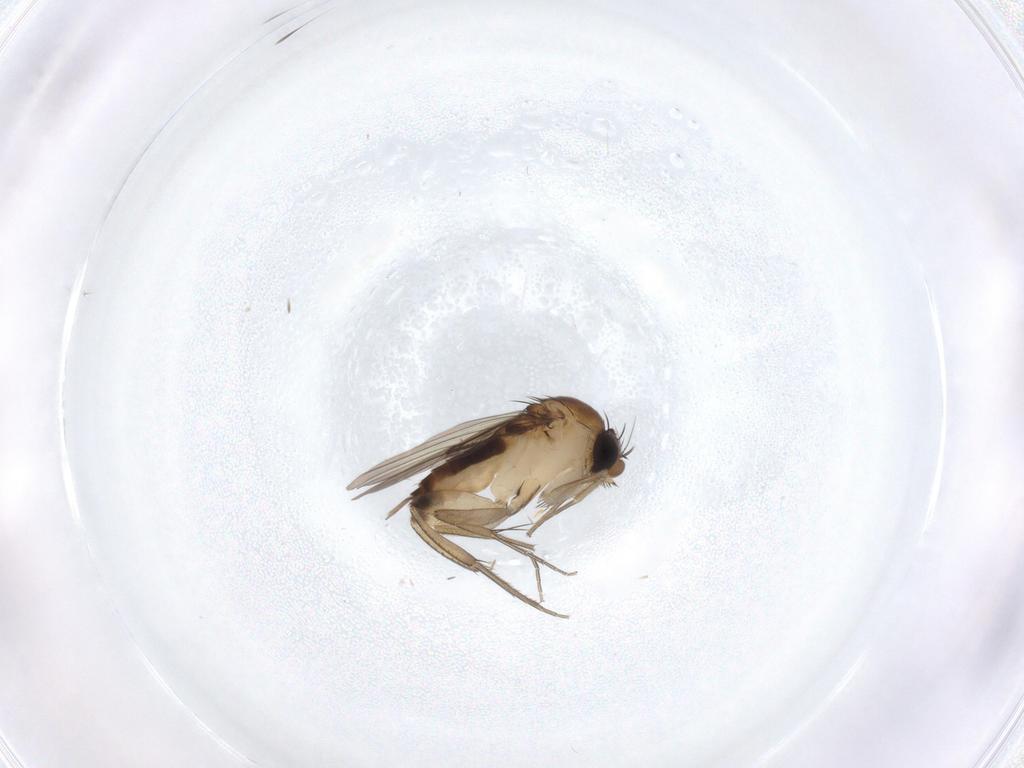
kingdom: Animalia
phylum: Arthropoda
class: Insecta
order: Diptera
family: Phoridae
